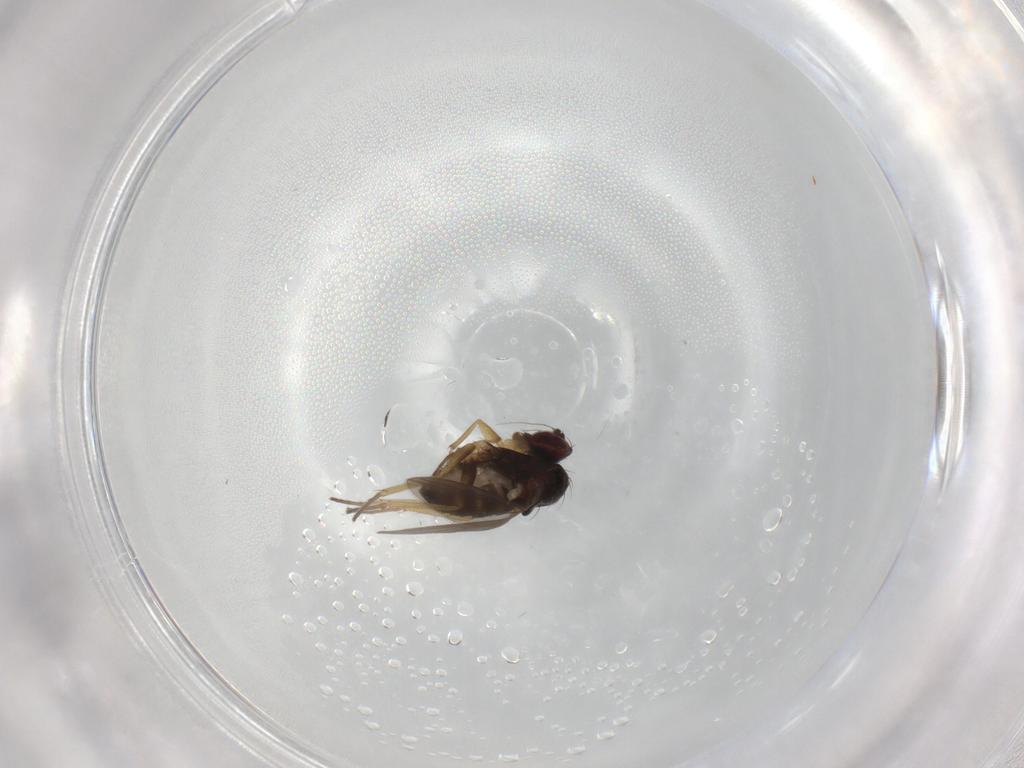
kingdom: Animalia
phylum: Arthropoda
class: Insecta
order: Diptera
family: Dolichopodidae
